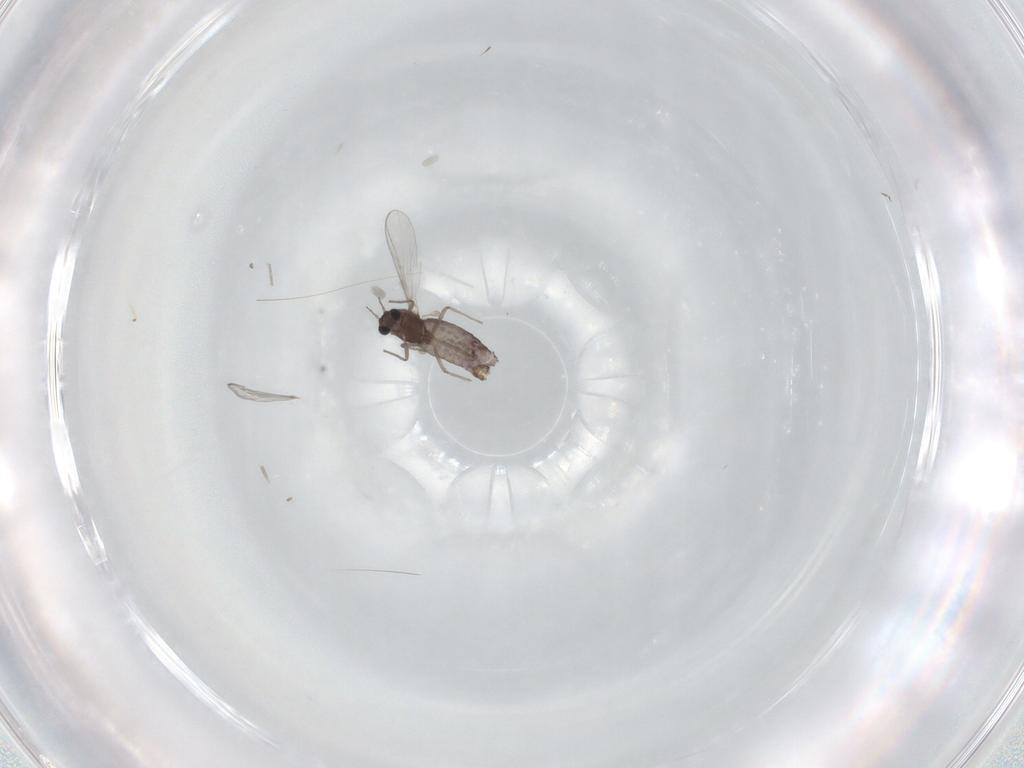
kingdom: Animalia
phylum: Arthropoda
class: Insecta
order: Diptera
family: Chironomidae
